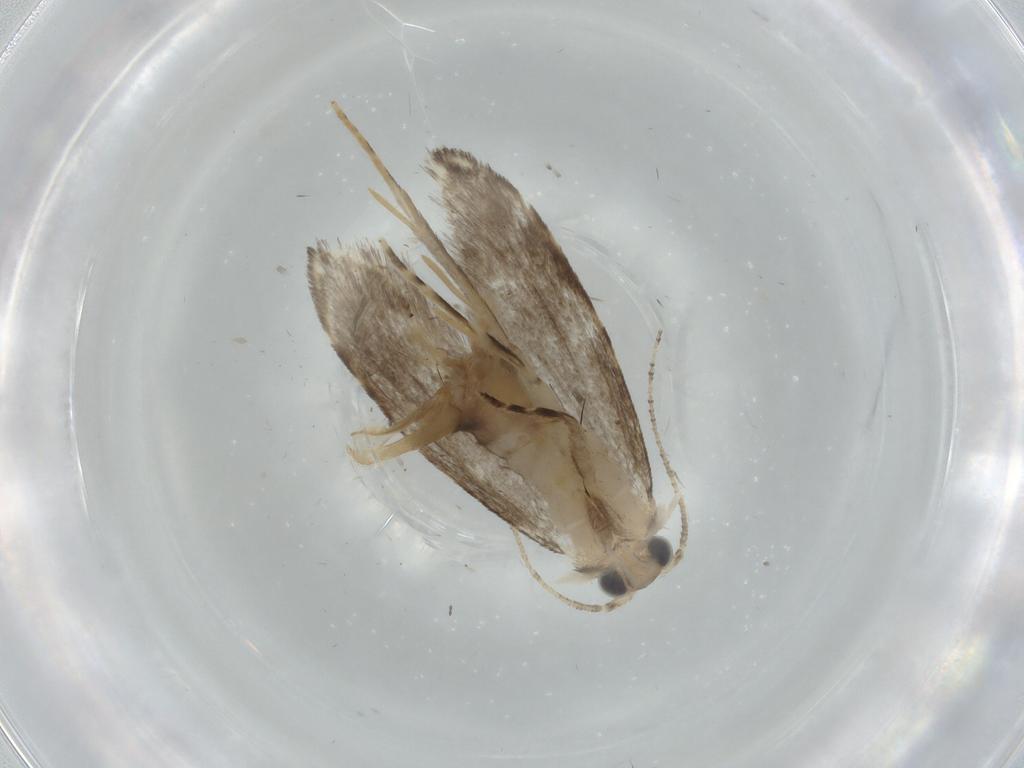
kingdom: Animalia
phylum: Arthropoda
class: Insecta
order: Lepidoptera
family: Tineidae
